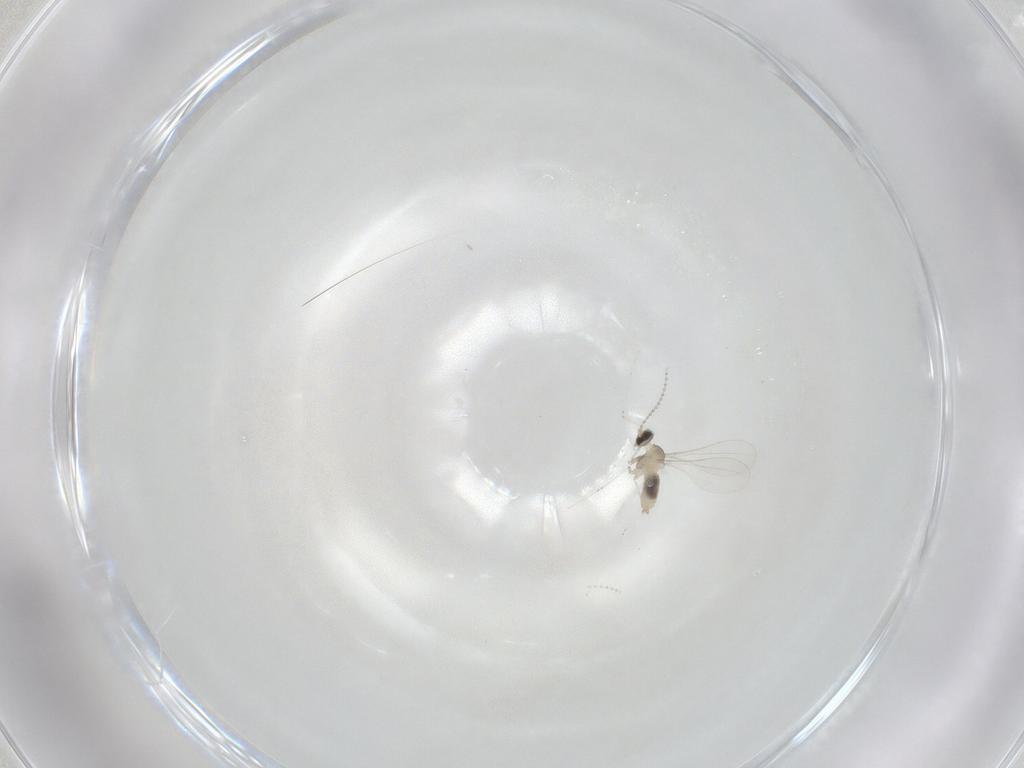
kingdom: Animalia
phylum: Arthropoda
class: Insecta
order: Diptera
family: Cecidomyiidae
